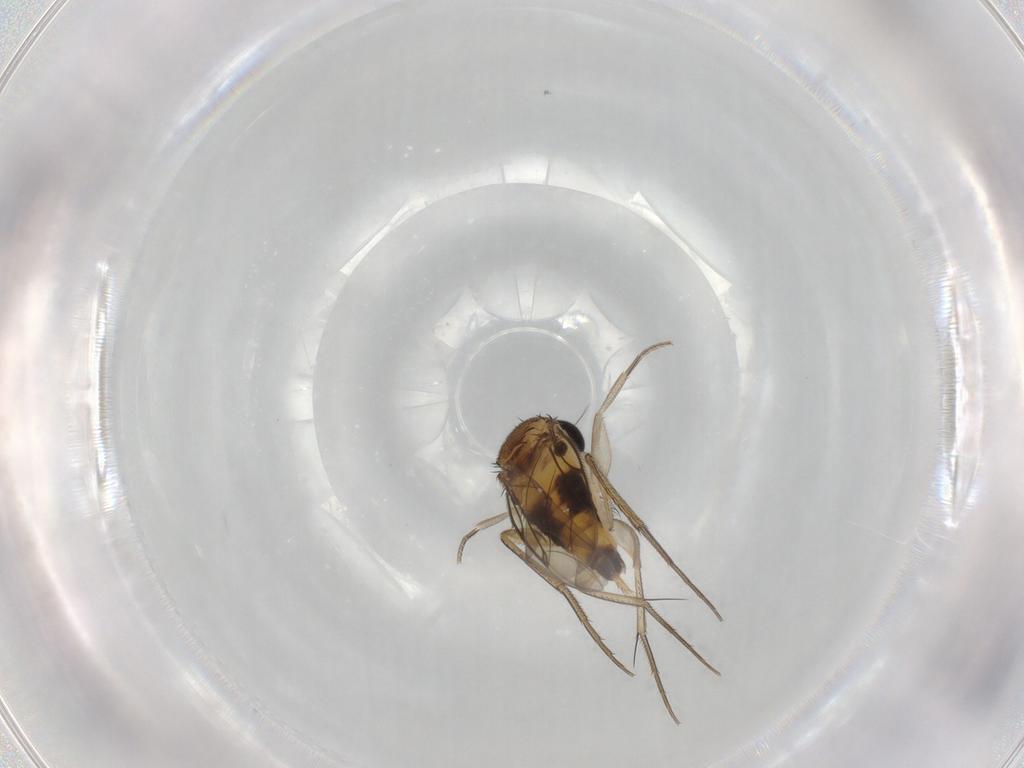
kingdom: Animalia
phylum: Arthropoda
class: Insecta
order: Diptera
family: Phoridae
